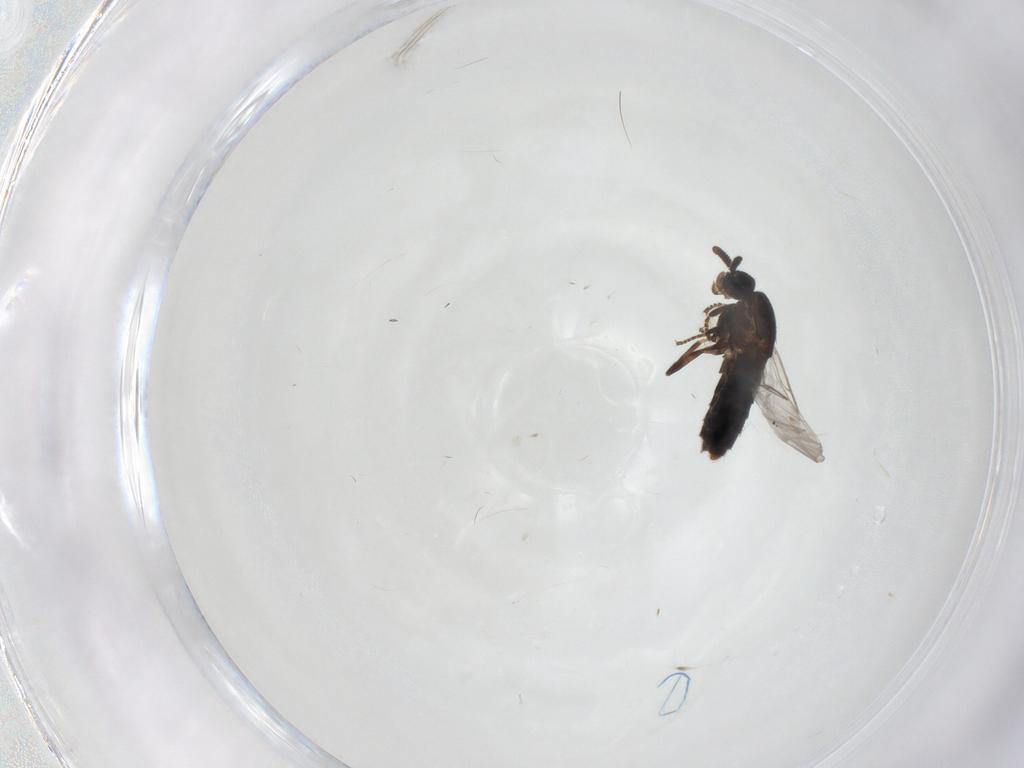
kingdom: Animalia
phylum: Arthropoda
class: Insecta
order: Diptera
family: Scatopsidae
